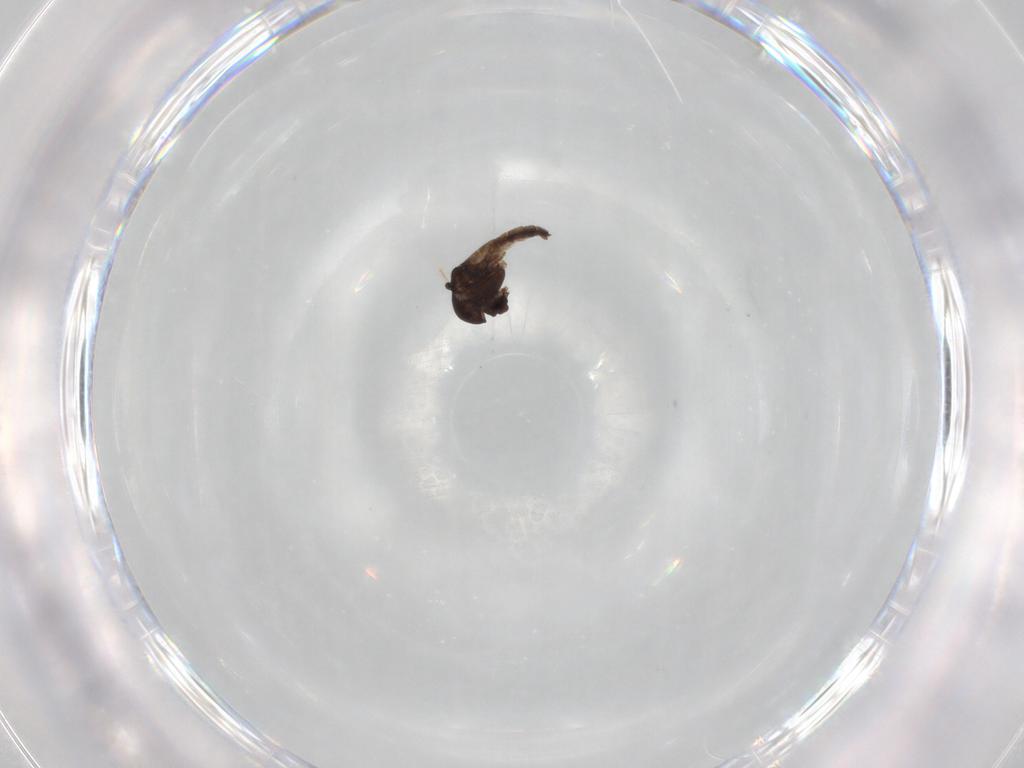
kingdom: Animalia
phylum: Arthropoda
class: Insecta
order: Diptera
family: Chironomidae
